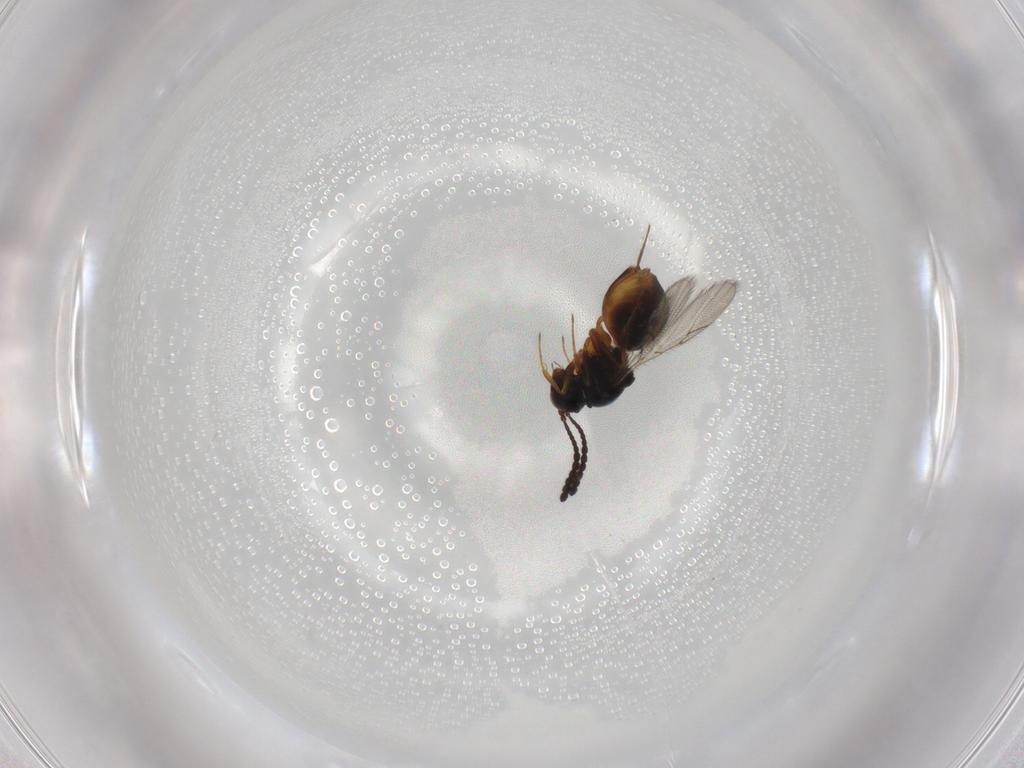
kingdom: Animalia
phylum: Arthropoda
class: Insecta
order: Hymenoptera
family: Figitidae
